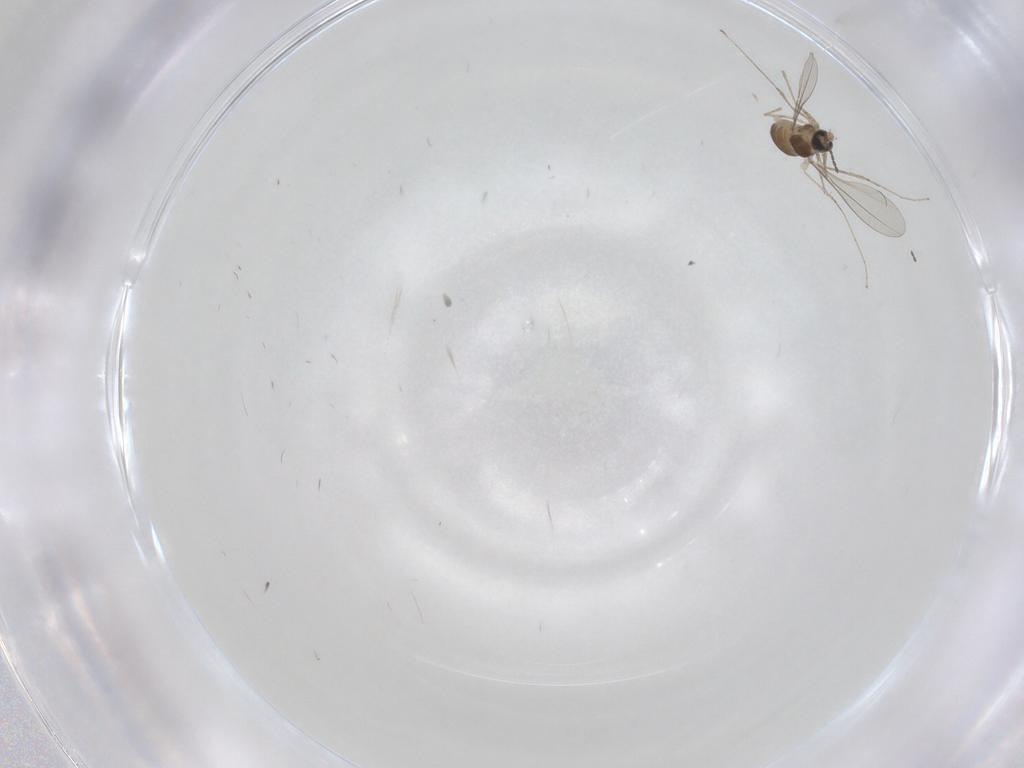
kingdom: Animalia
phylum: Arthropoda
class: Insecta
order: Diptera
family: Cecidomyiidae
